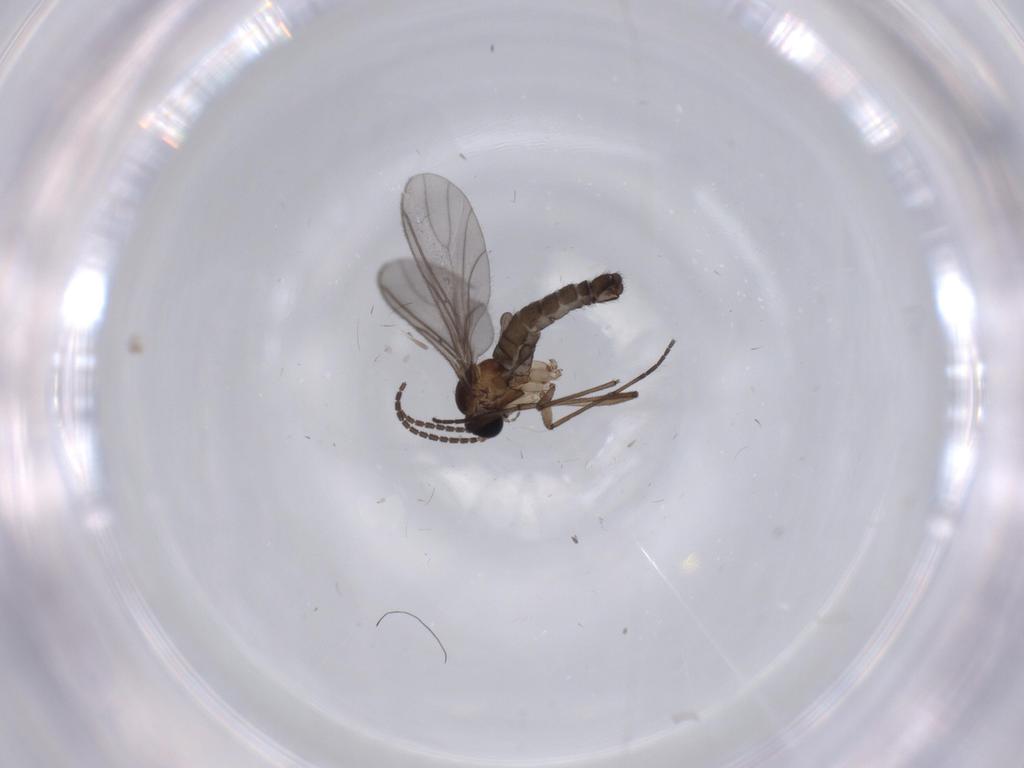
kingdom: Animalia
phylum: Arthropoda
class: Insecta
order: Diptera
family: Sciaridae
